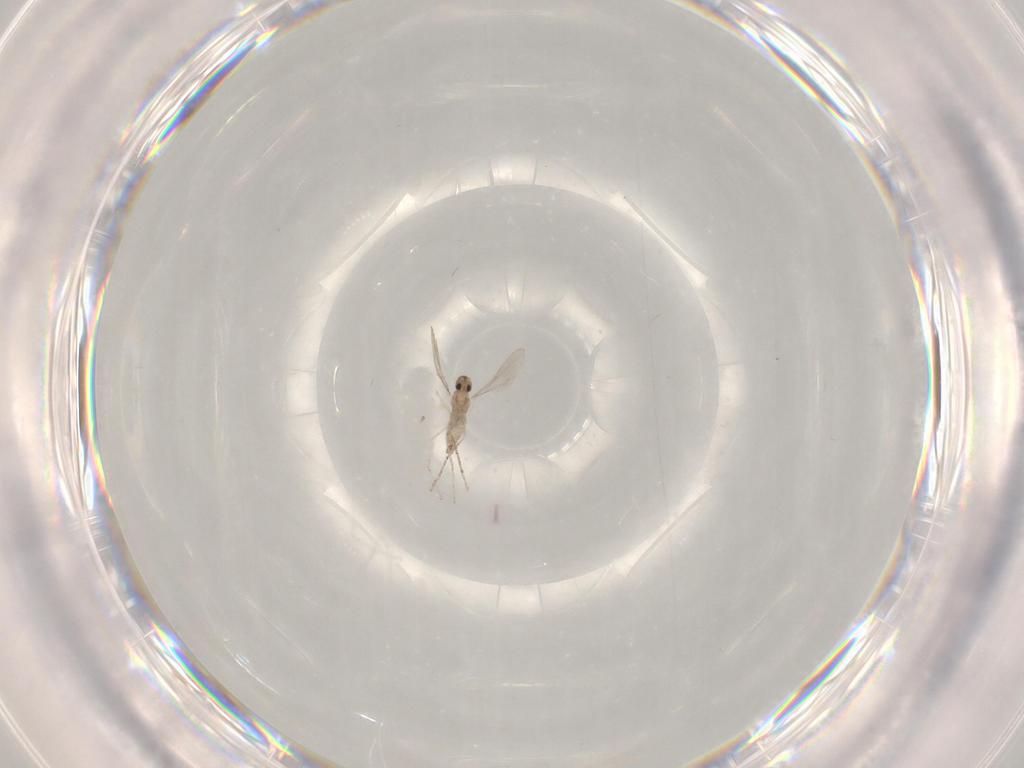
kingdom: Animalia
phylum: Arthropoda
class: Insecta
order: Diptera
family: Cecidomyiidae
